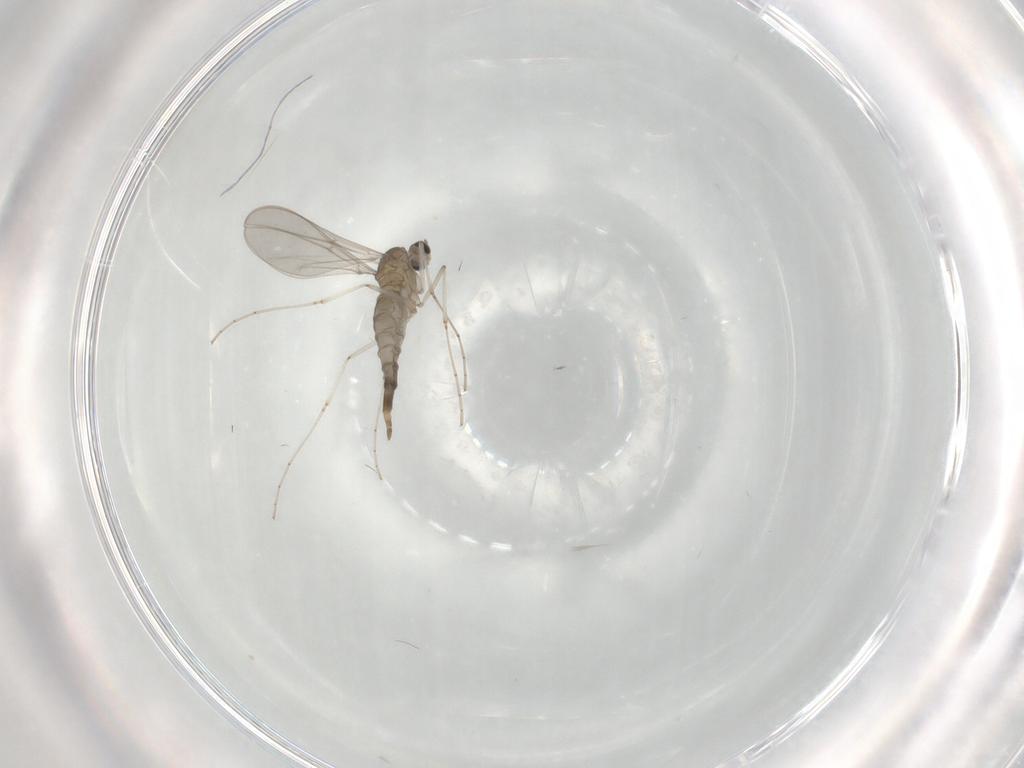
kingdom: Animalia
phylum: Arthropoda
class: Insecta
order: Diptera
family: Cecidomyiidae
